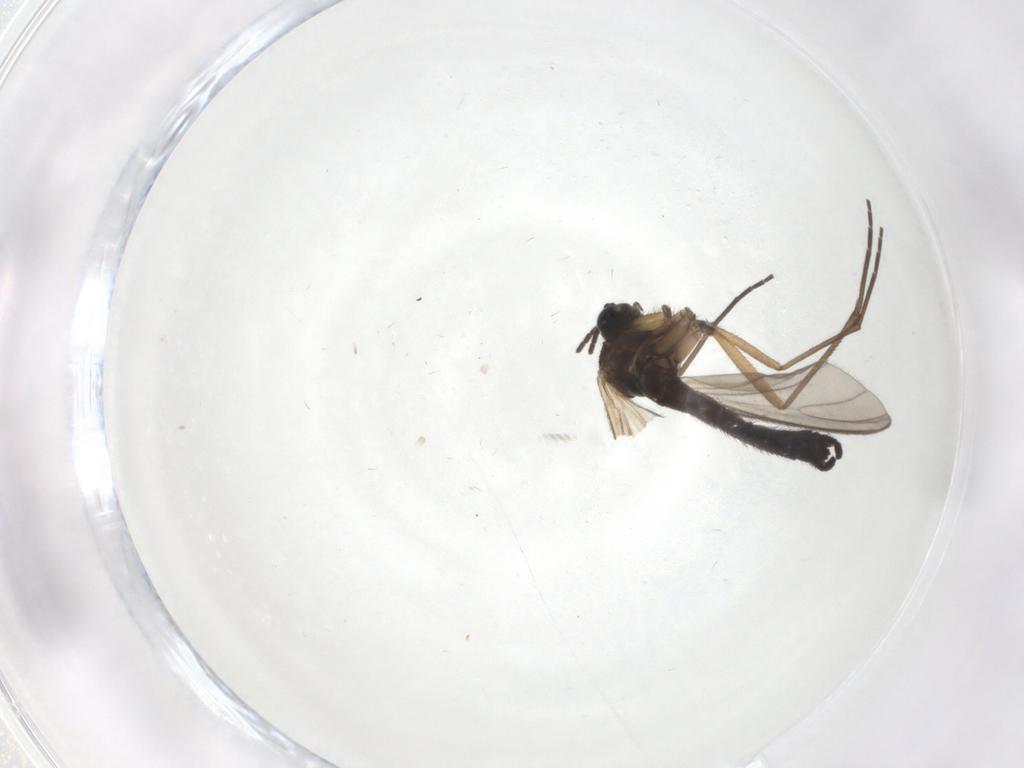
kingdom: Animalia
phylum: Arthropoda
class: Insecta
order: Diptera
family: Sciaridae
